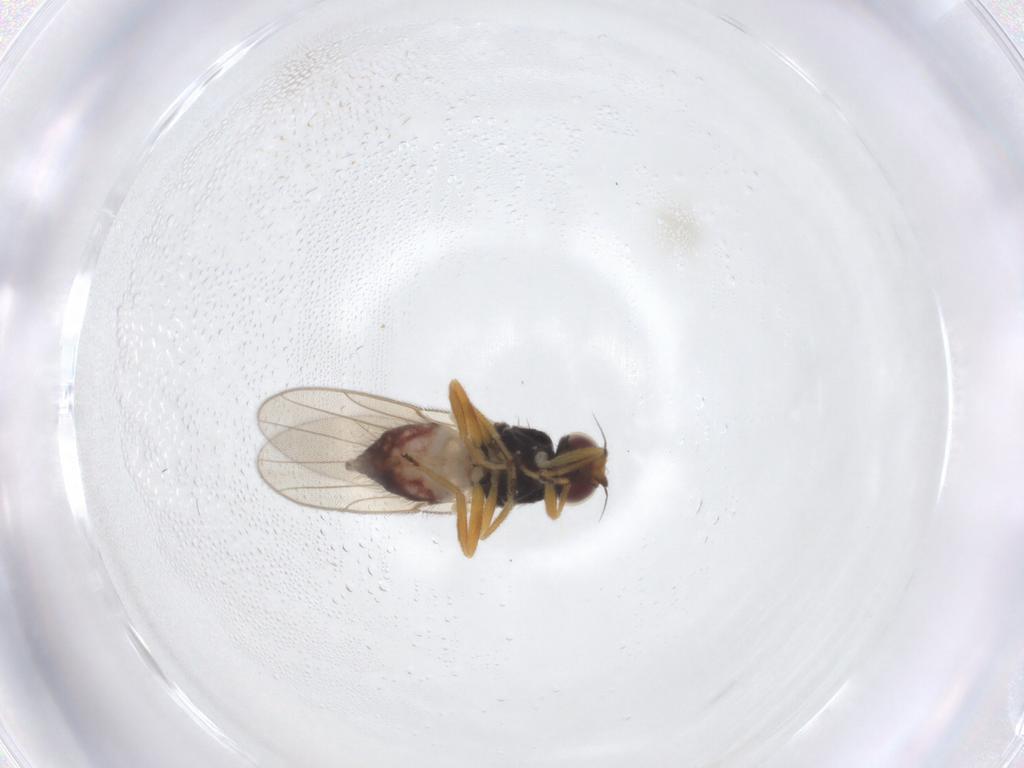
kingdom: Animalia
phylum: Arthropoda
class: Insecta
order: Diptera
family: Chloropidae
